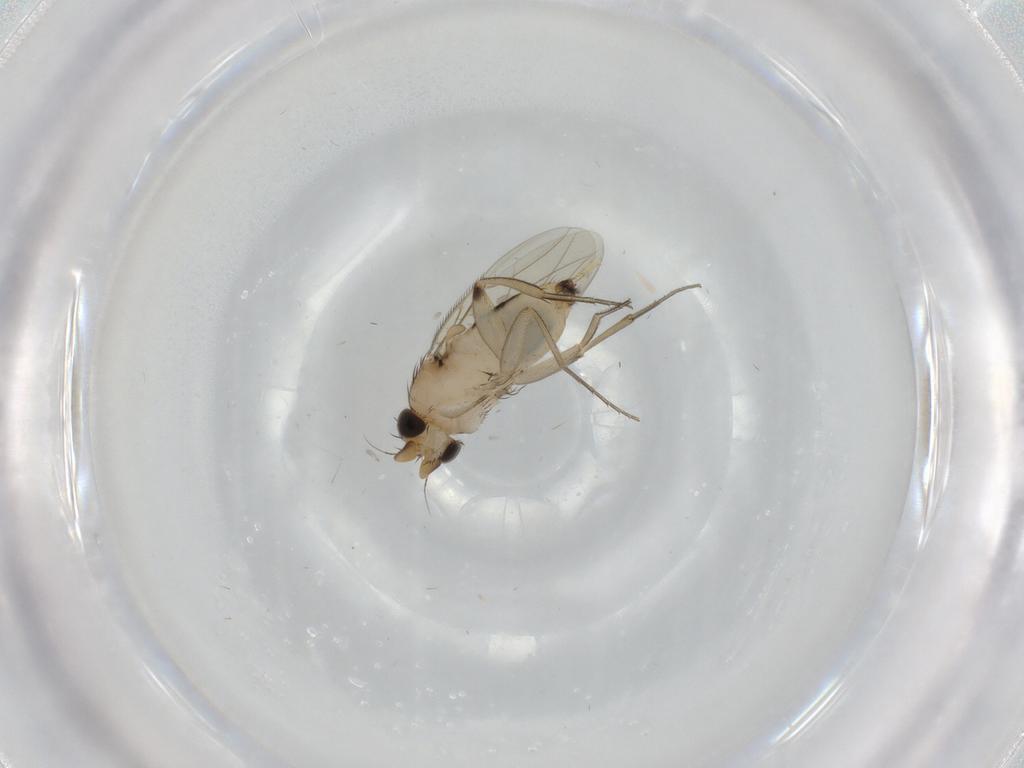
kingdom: Animalia
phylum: Arthropoda
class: Insecta
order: Diptera
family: Phoridae
